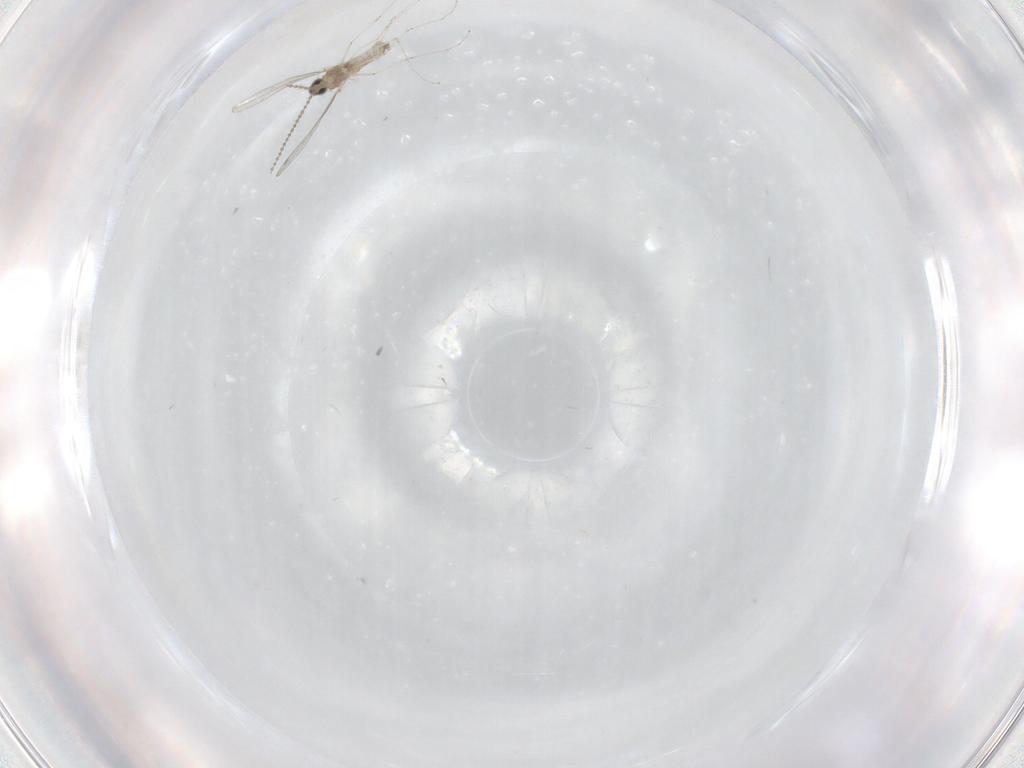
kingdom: Animalia
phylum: Arthropoda
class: Insecta
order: Diptera
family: Cecidomyiidae
